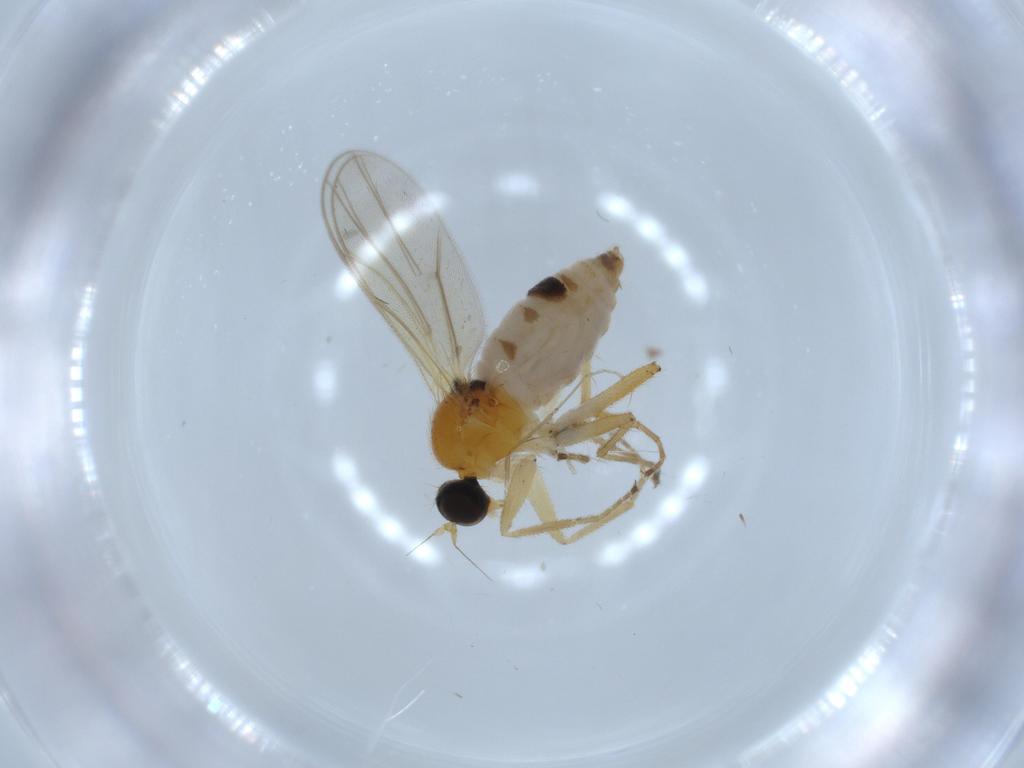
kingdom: Animalia
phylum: Arthropoda
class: Insecta
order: Diptera
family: Hybotidae
